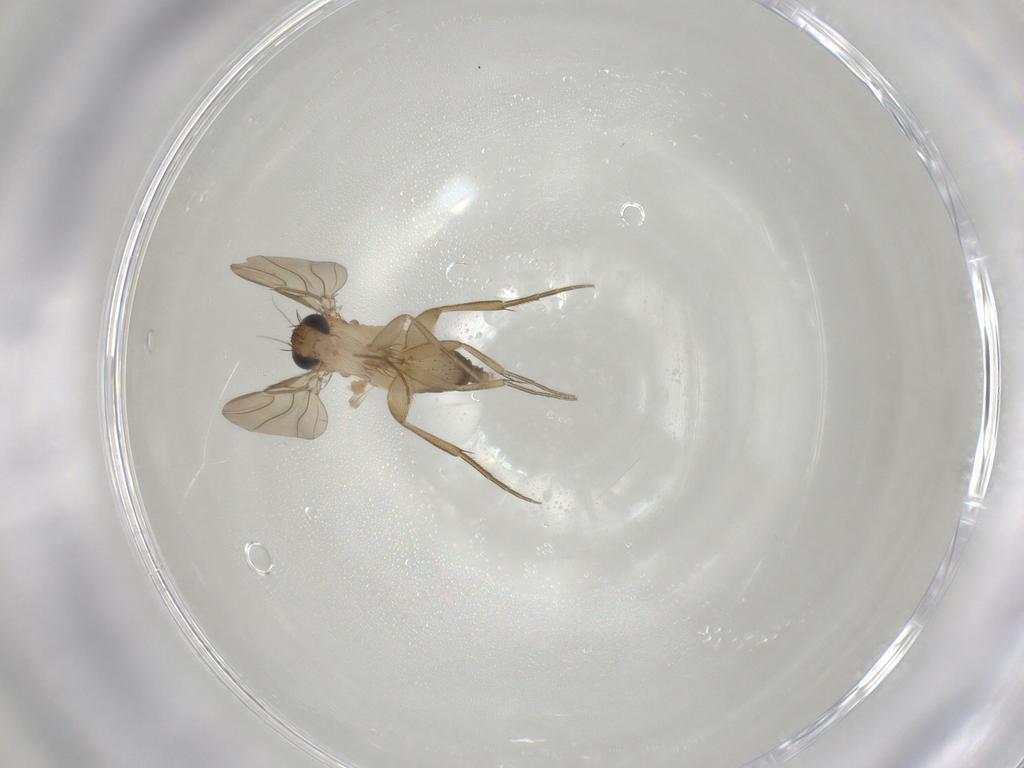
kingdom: Animalia
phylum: Arthropoda
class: Insecta
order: Diptera
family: Phoridae
